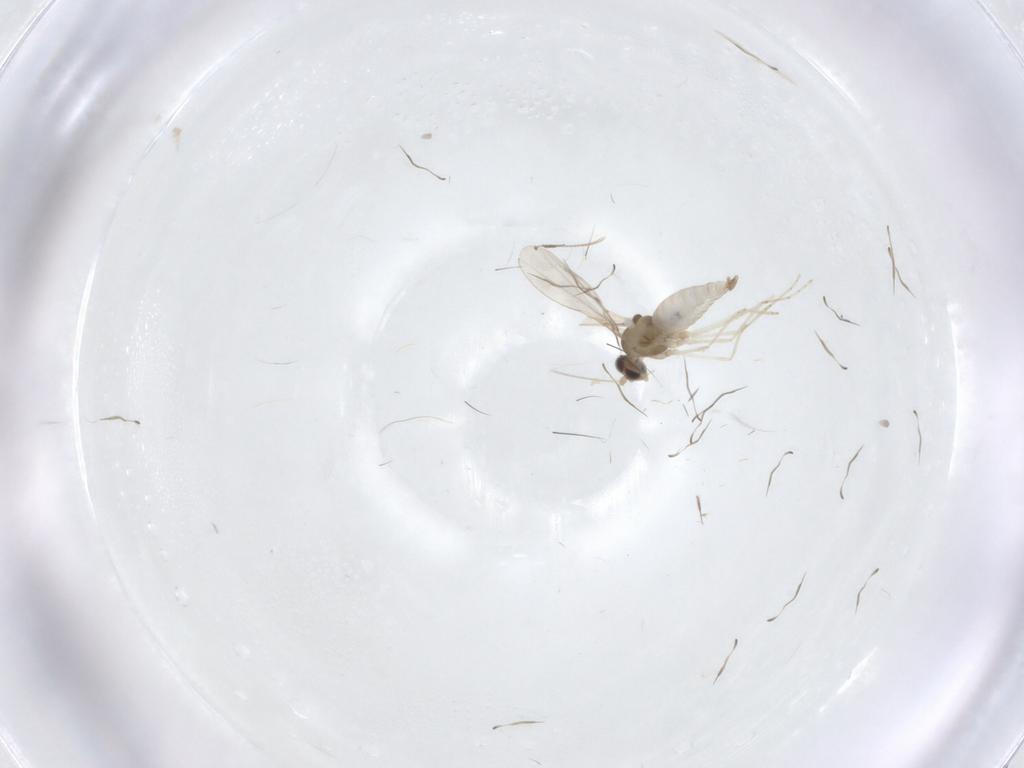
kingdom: Animalia
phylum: Arthropoda
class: Insecta
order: Diptera
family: Chironomidae
